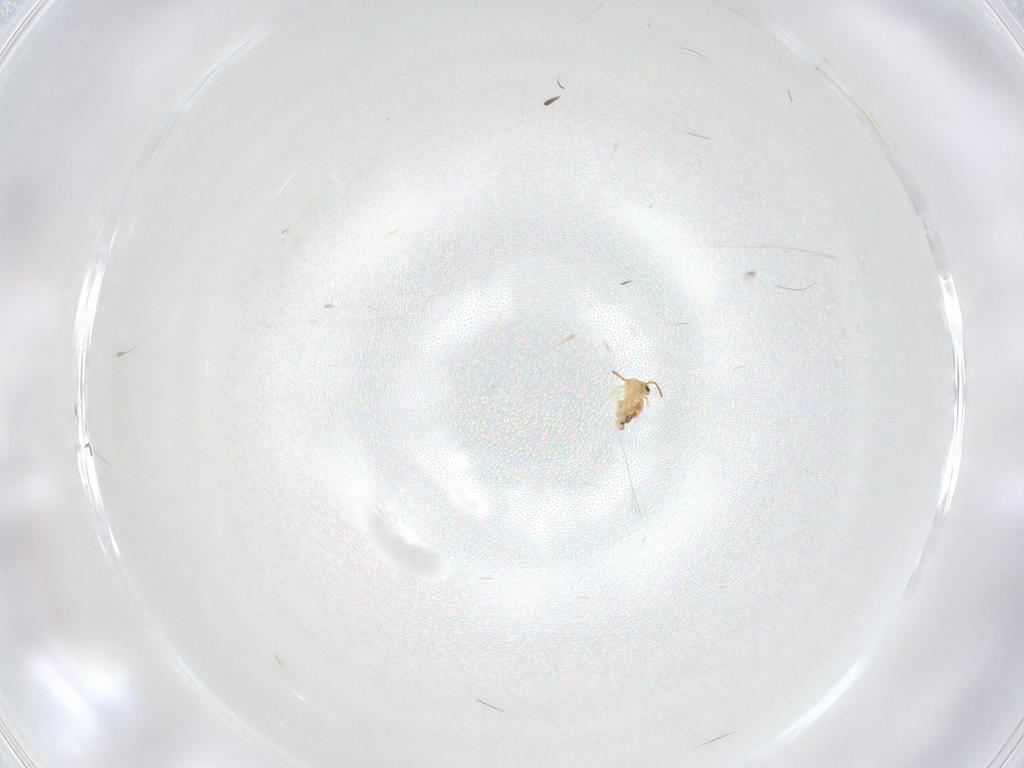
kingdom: Animalia
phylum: Arthropoda
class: Collembola
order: Symphypleona
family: Bourletiellidae
